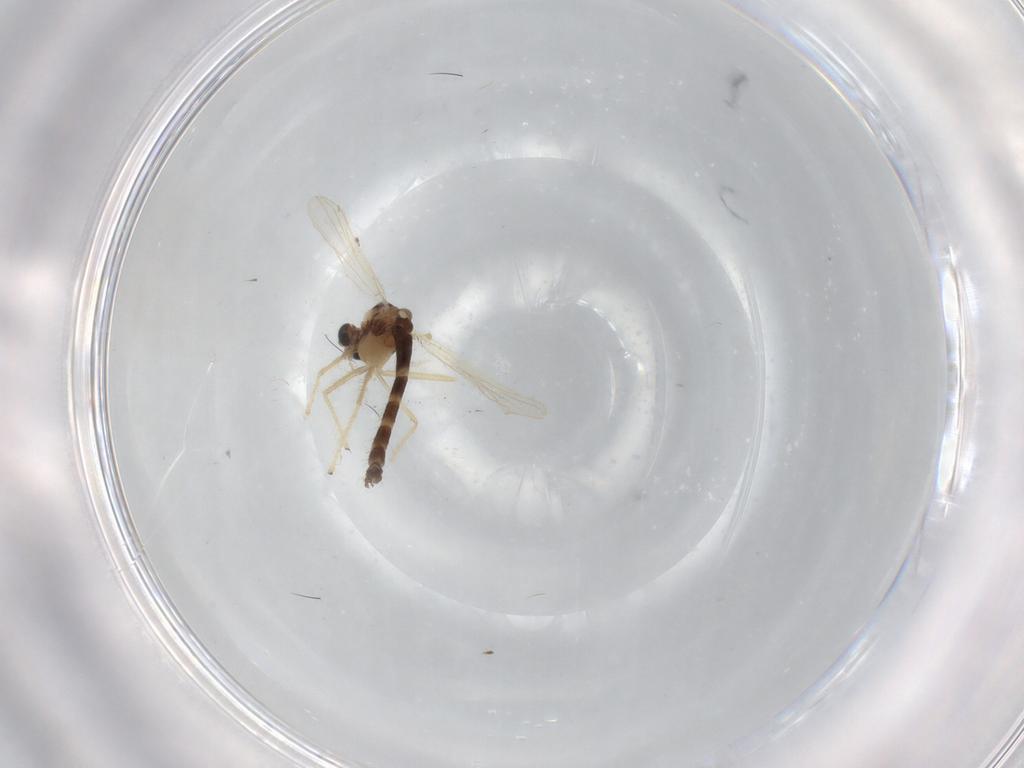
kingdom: Animalia
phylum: Arthropoda
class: Insecta
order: Diptera
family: Chironomidae
